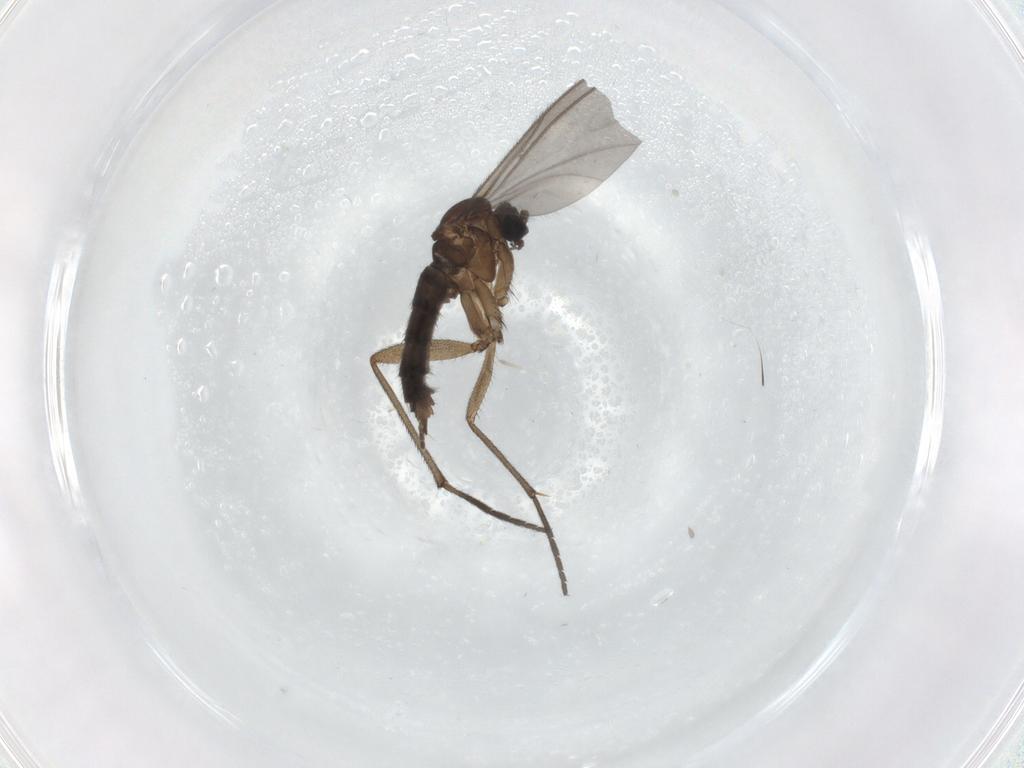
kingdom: Animalia
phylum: Arthropoda
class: Insecta
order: Diptera
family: Sciaridae
